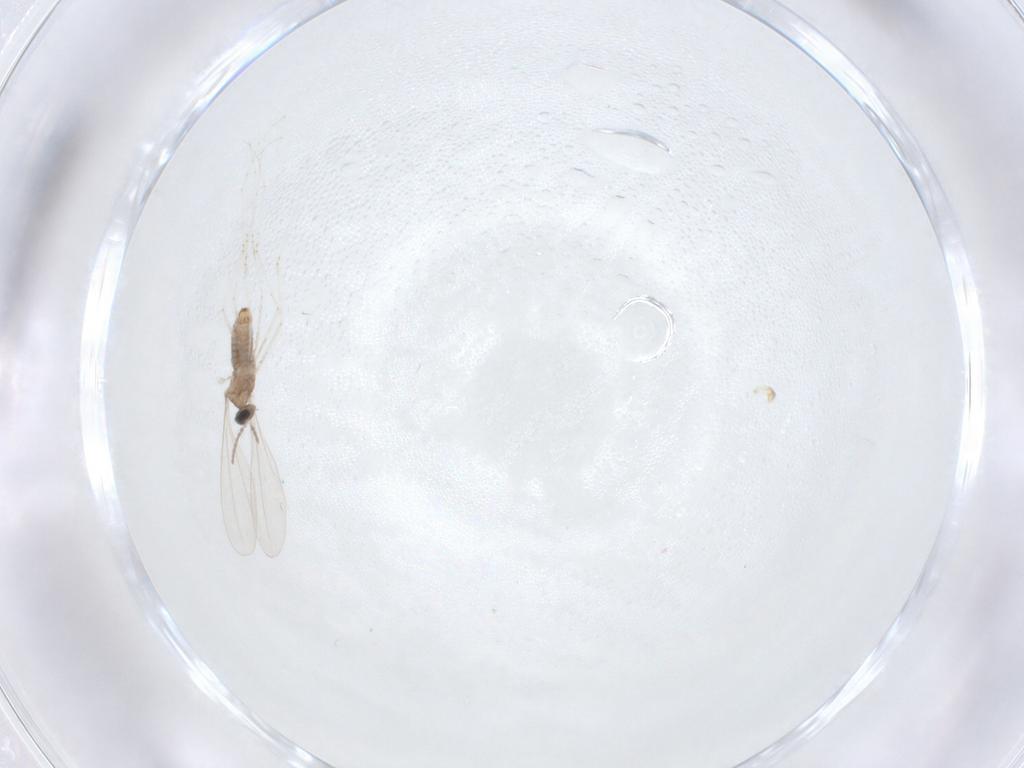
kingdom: Animalia
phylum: Arthropoda
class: Insecta
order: Diptera
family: Cecidomyiidae
